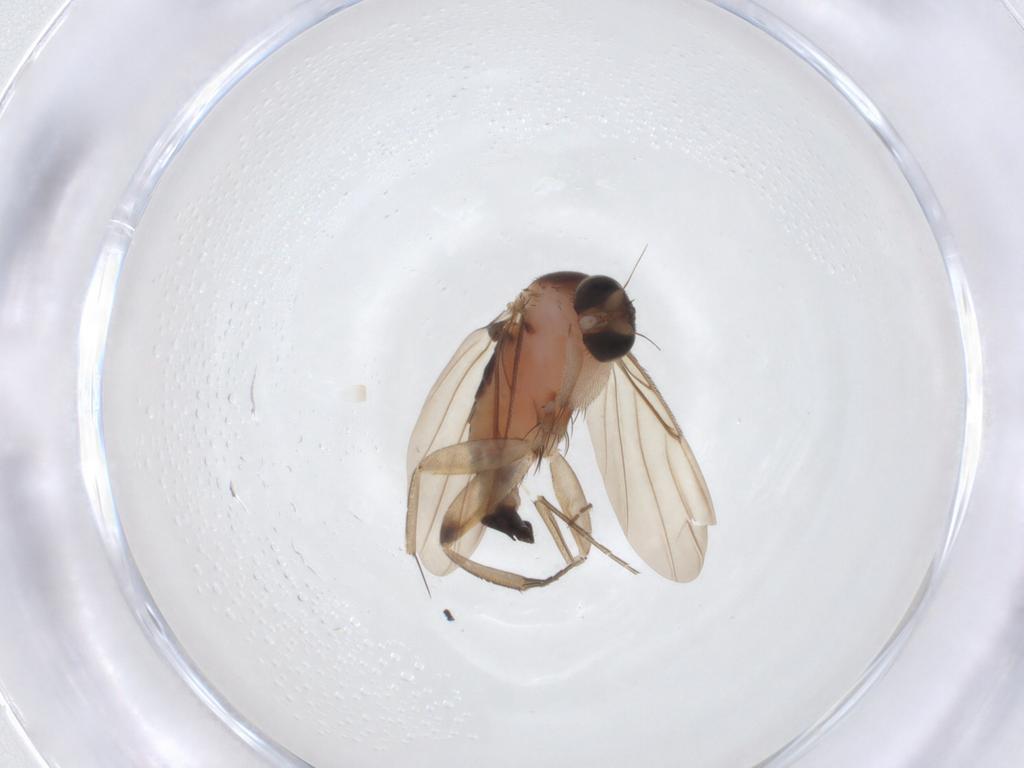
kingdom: Animalia
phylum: Arthropoda
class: Insecta
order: Diptera
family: Phoridae
